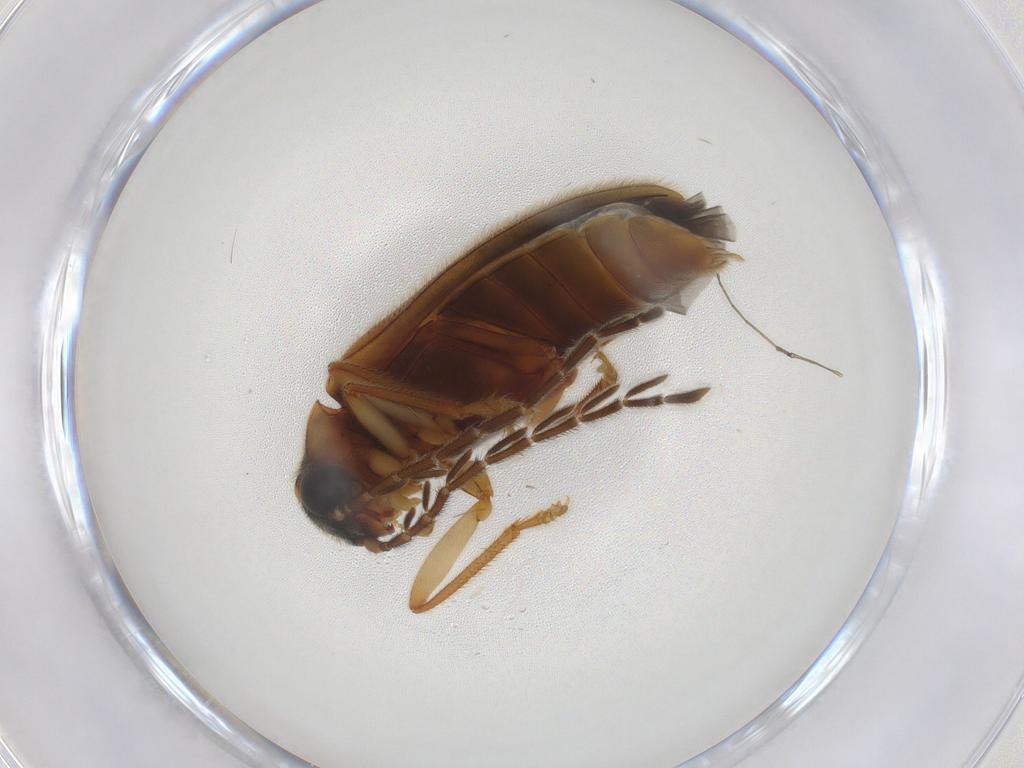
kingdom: Animalia
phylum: Arthropoda
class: Insecta
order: Coleoptera
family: Ptilodactylidae
